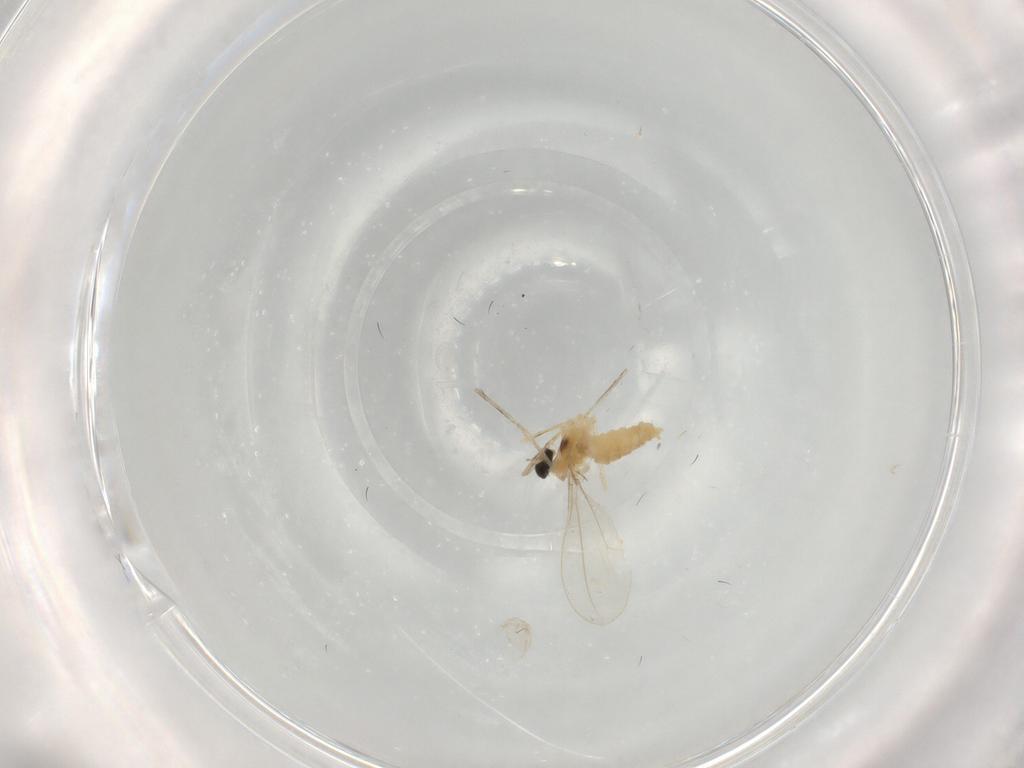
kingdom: Animalia
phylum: Arthropoda
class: Insecta
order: Diptera
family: Cecidomyiidae
